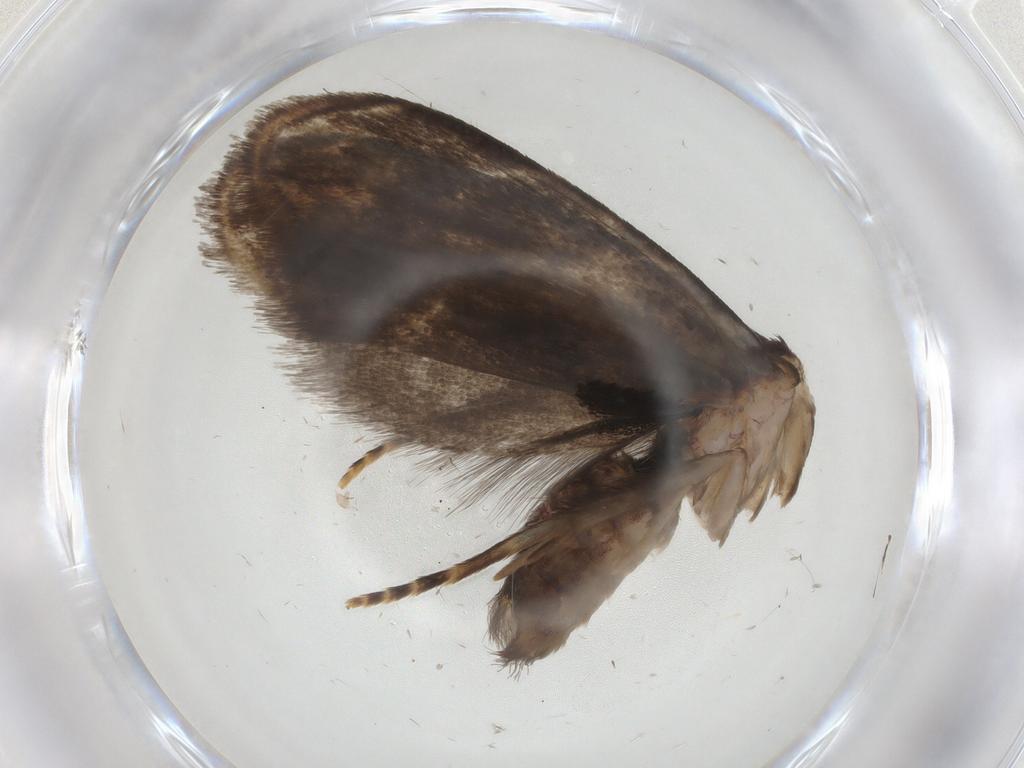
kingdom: Animalia
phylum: Arthropoda
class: Insecta
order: Lepidoptera
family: Dryadaulidae
